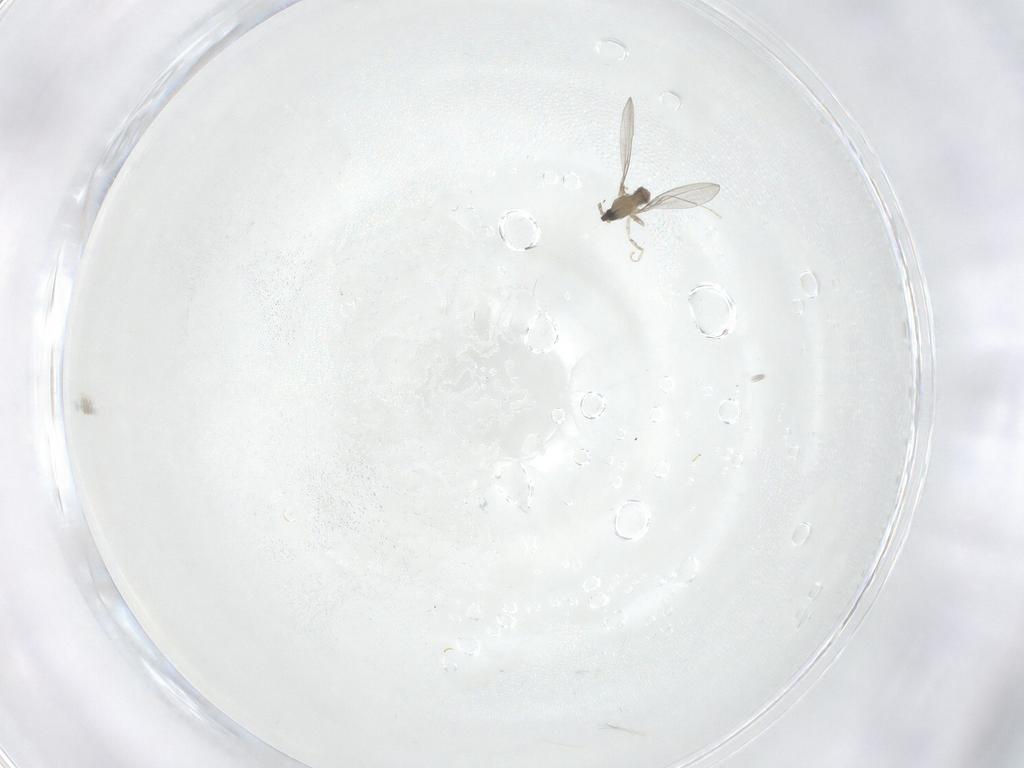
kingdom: Animalia
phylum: Arthropoda
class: Insecta
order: Diptera
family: Cecidomyiidae
